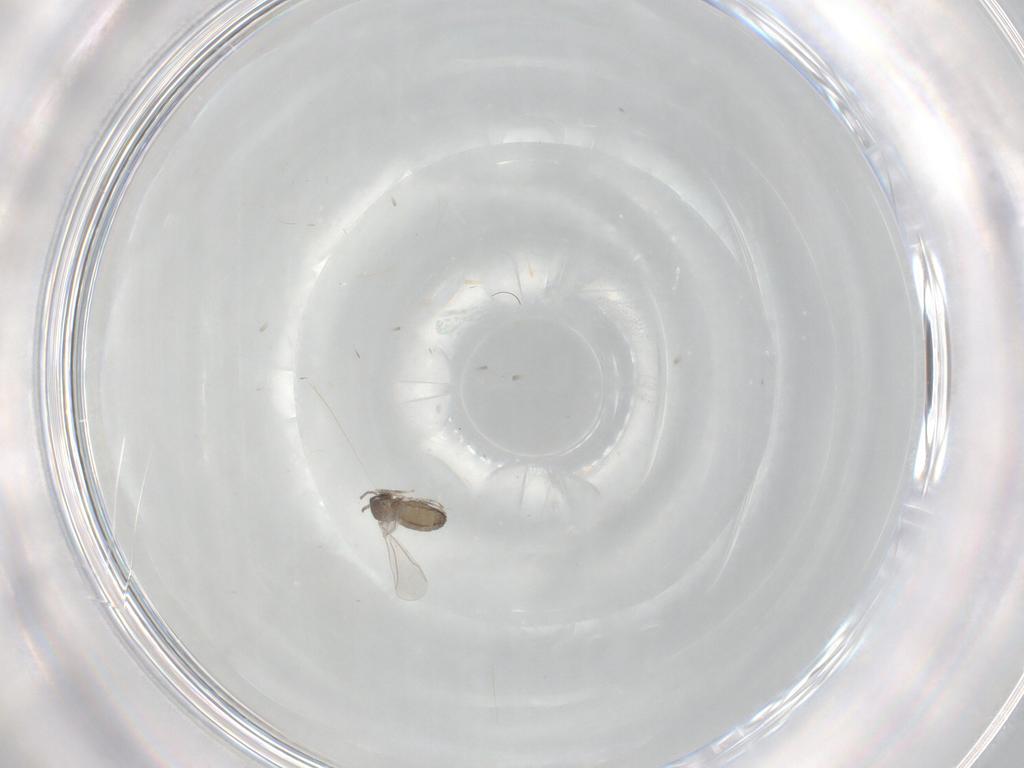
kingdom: Animalia
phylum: Arthropoda
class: Insecta
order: Diptera
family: Cecidomyiidae
